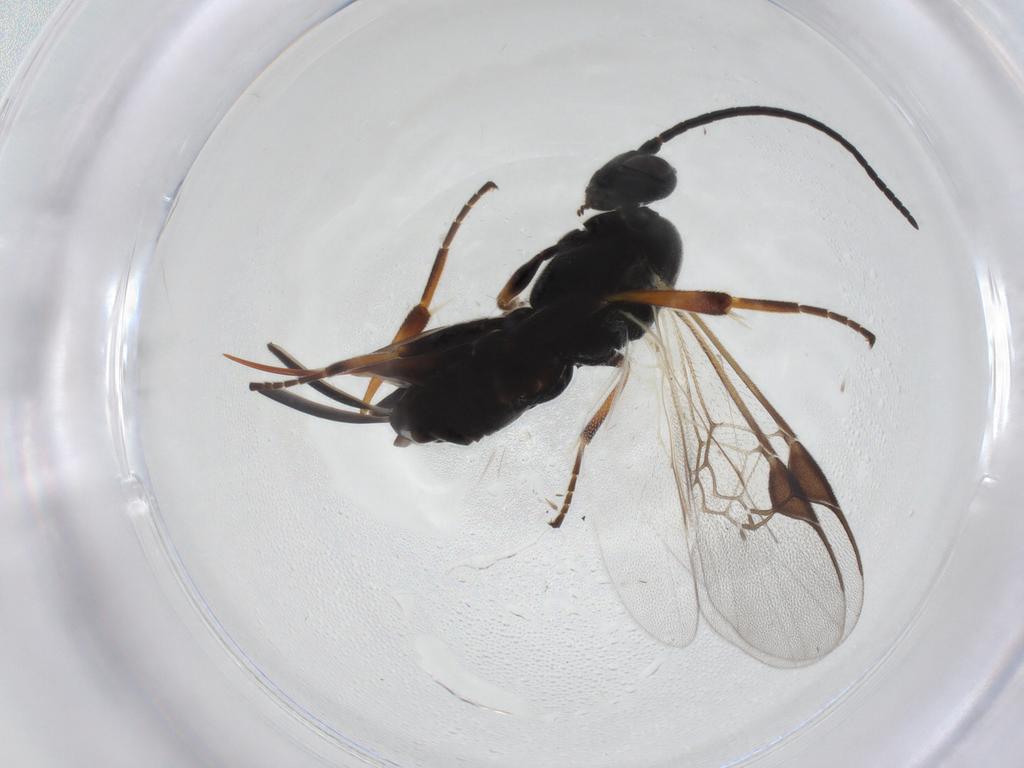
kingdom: Animalia
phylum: Arthropoda
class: Insecta
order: Hymenoptera
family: Braconidae
